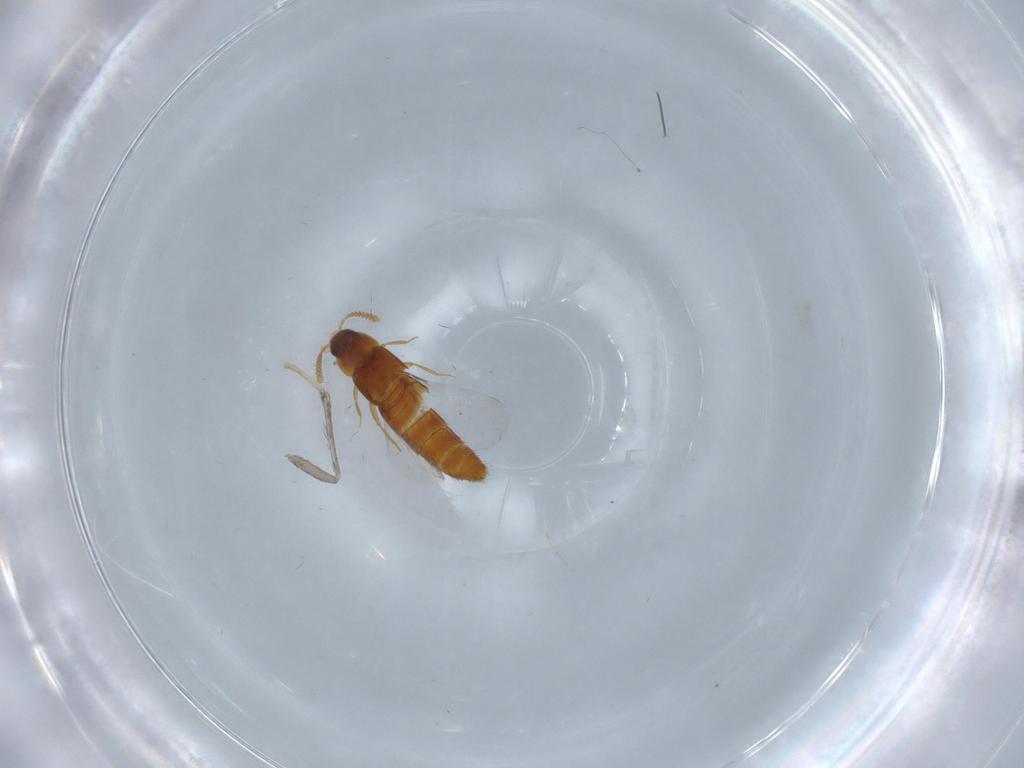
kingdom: Animalia
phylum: Arthropoda
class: Insecta
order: Coleoptera
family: Staphylinidae
